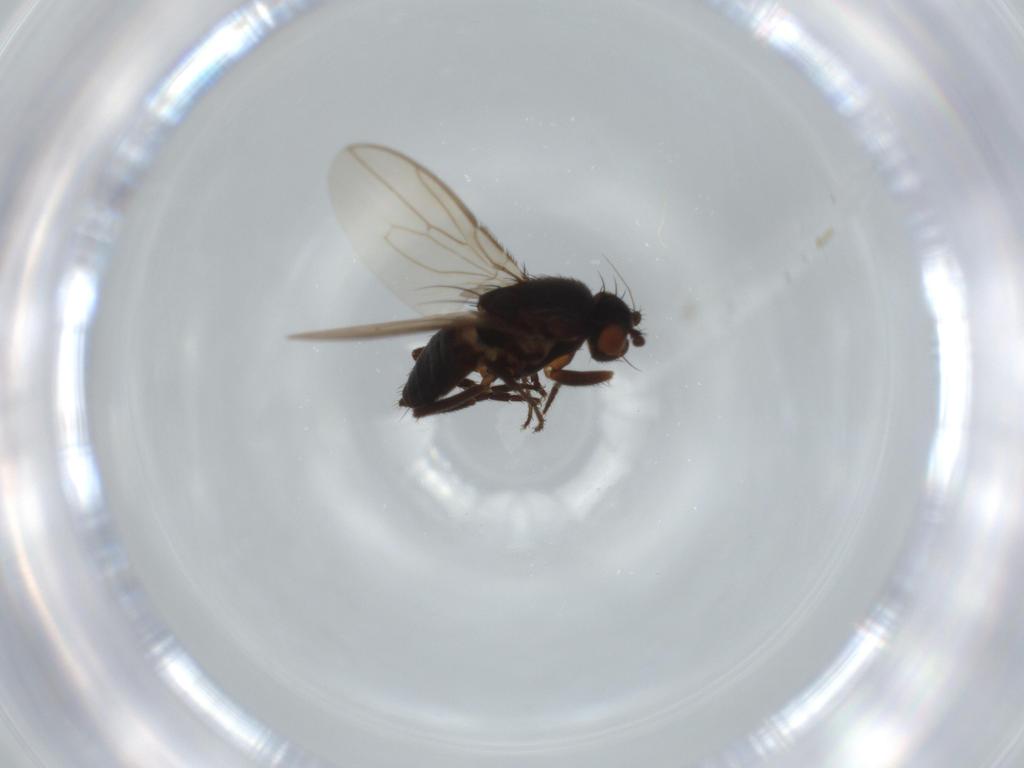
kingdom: Animalia
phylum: Arthropoda
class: Insecta
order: Diptera
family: Sphaeroceridae
